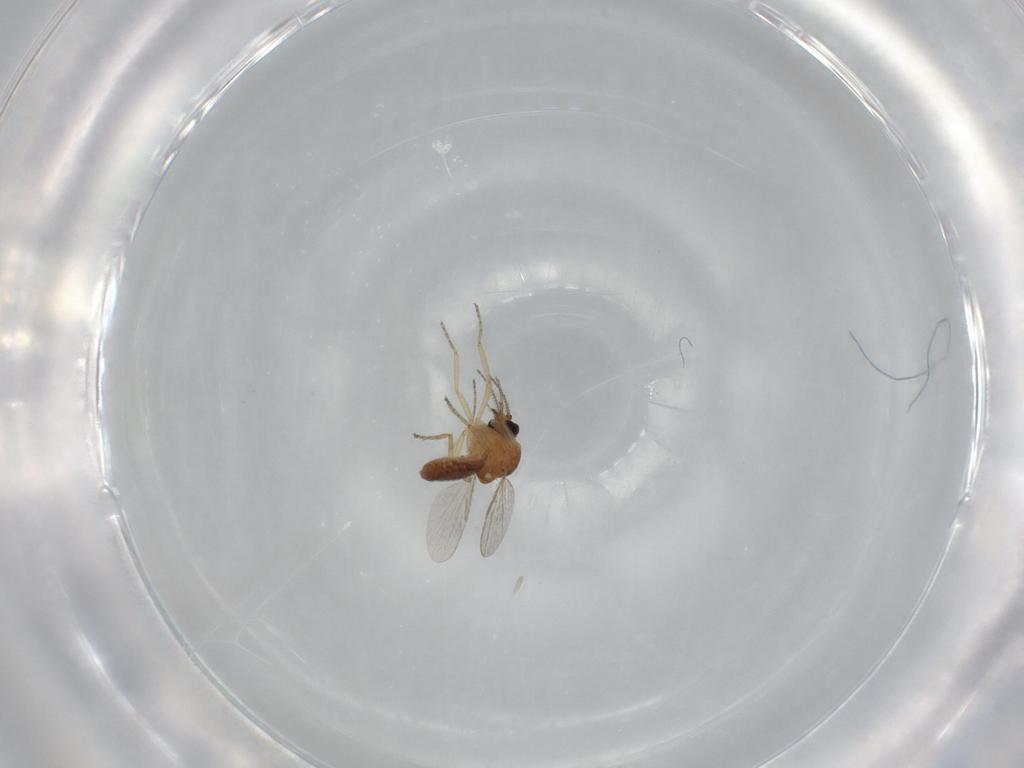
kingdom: Animalia
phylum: Arthropoda
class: Insecta
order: Diptera
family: Ceratopogonidae
